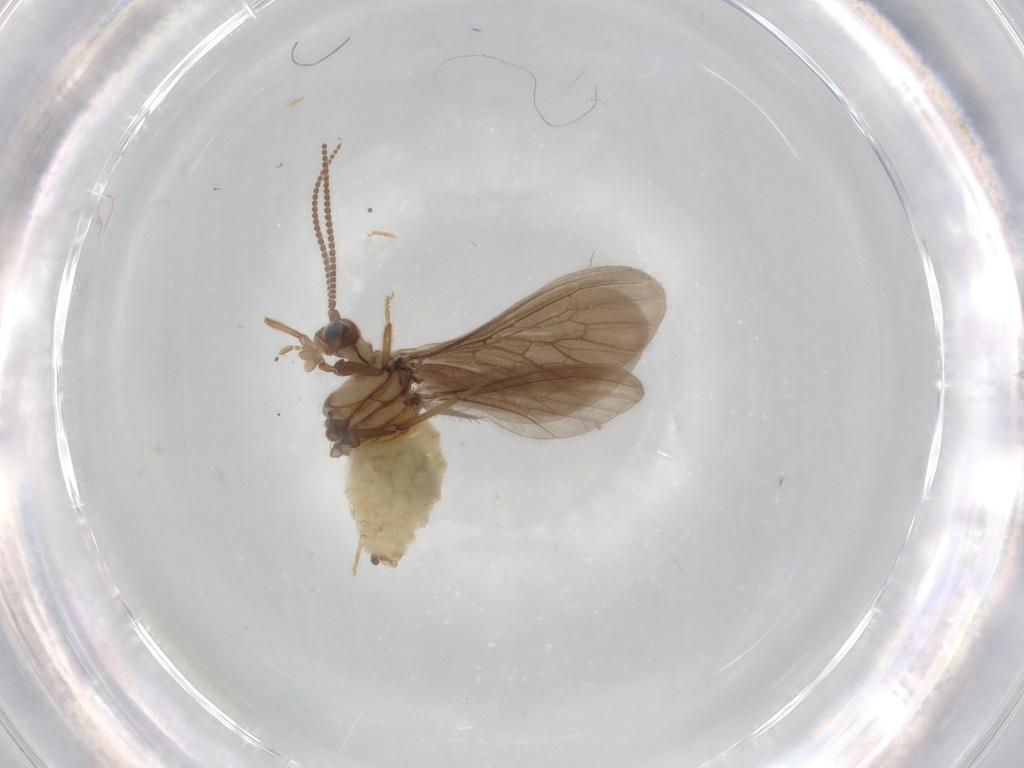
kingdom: Animalia
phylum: Arthropoda
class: Insecta
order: Neuroptera
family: Coniopterygidae
